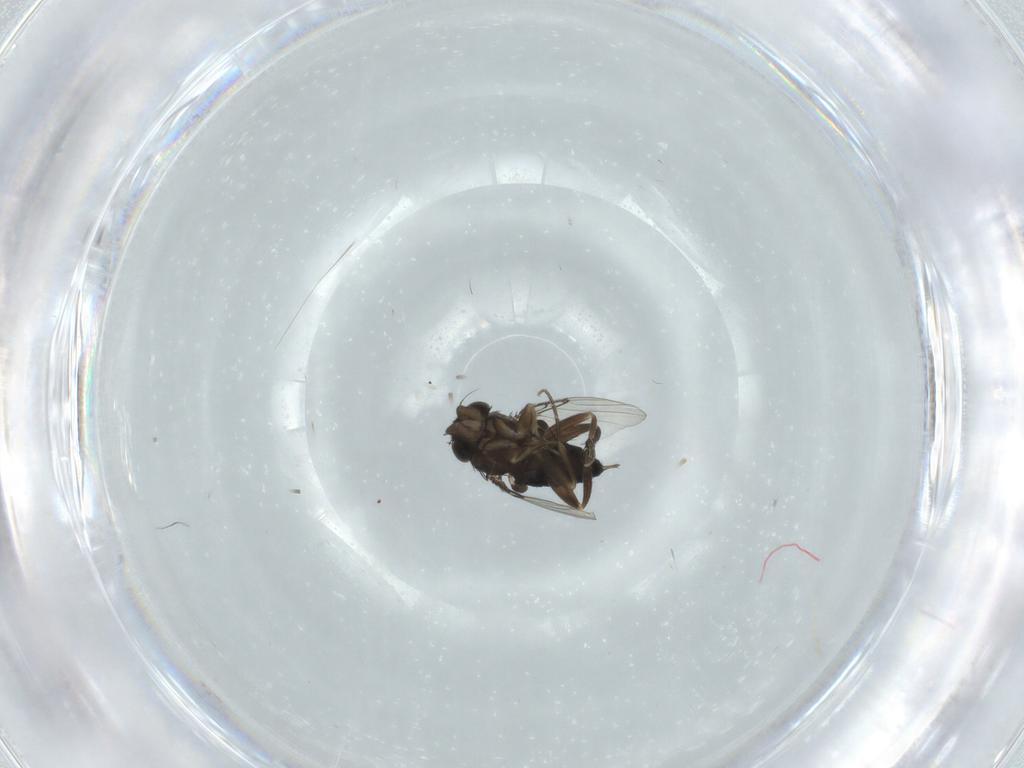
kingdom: Animalia
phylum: Arthropoda
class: Insecta
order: Diptera
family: Phoridae
